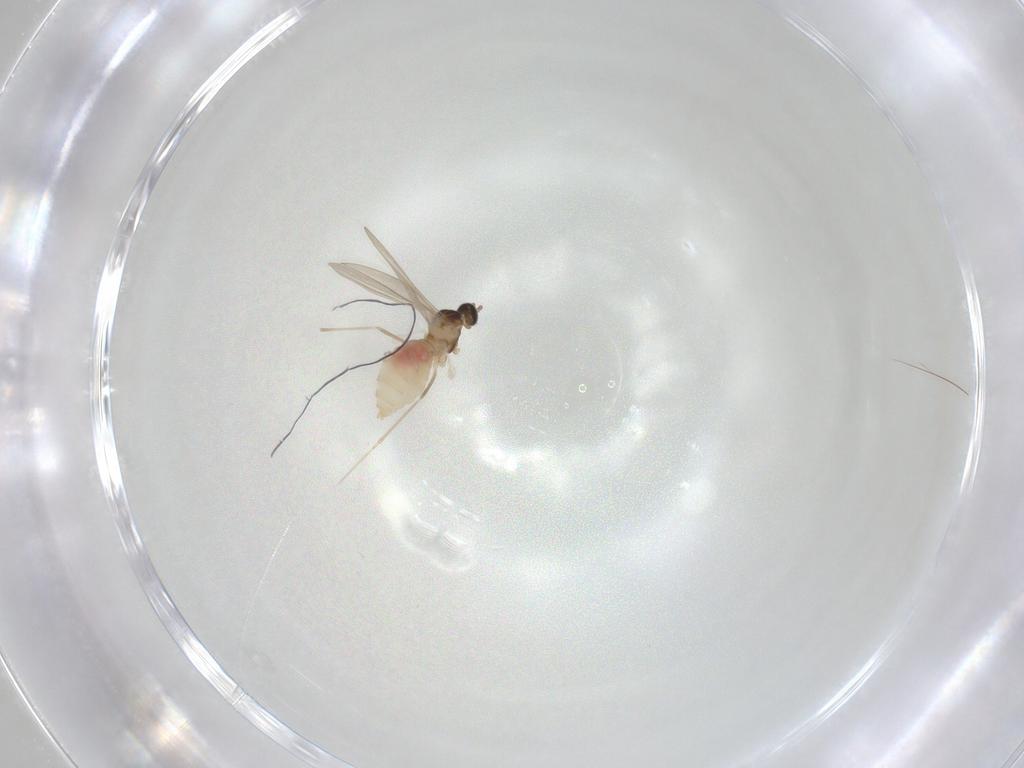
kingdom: Animalia
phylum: Arthropoda
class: Insecta
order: Diptera
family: Cecidomyiidae
